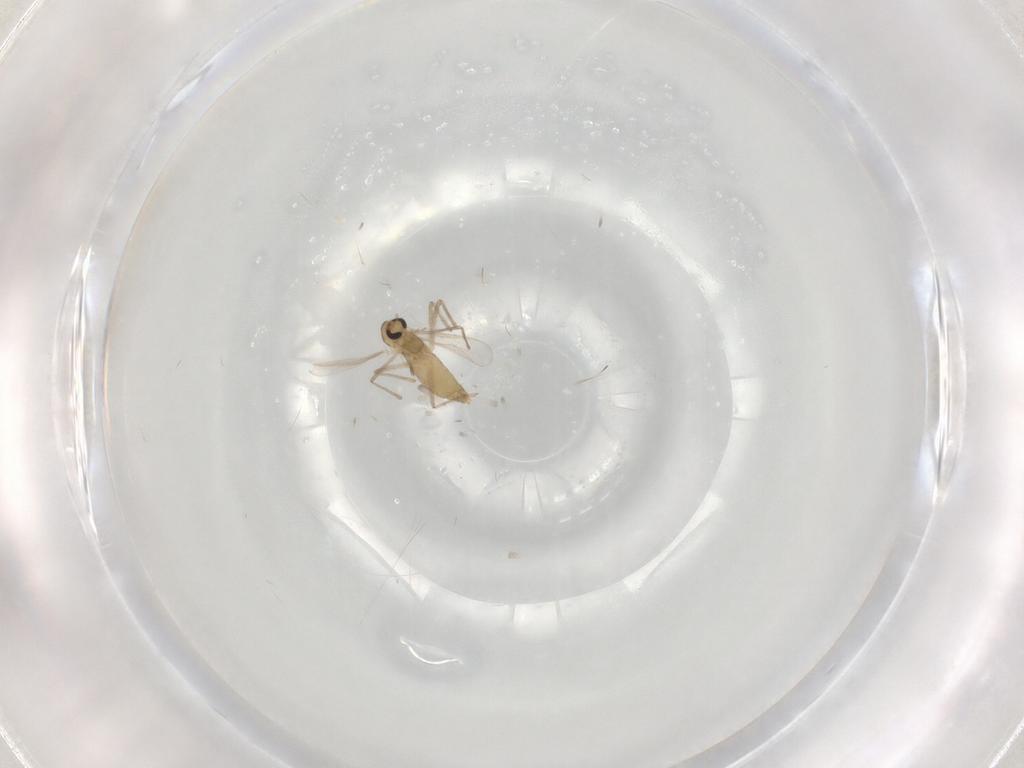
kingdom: Animalia
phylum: Arthropoda
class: Insecta
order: Diptera
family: Chironomidae
